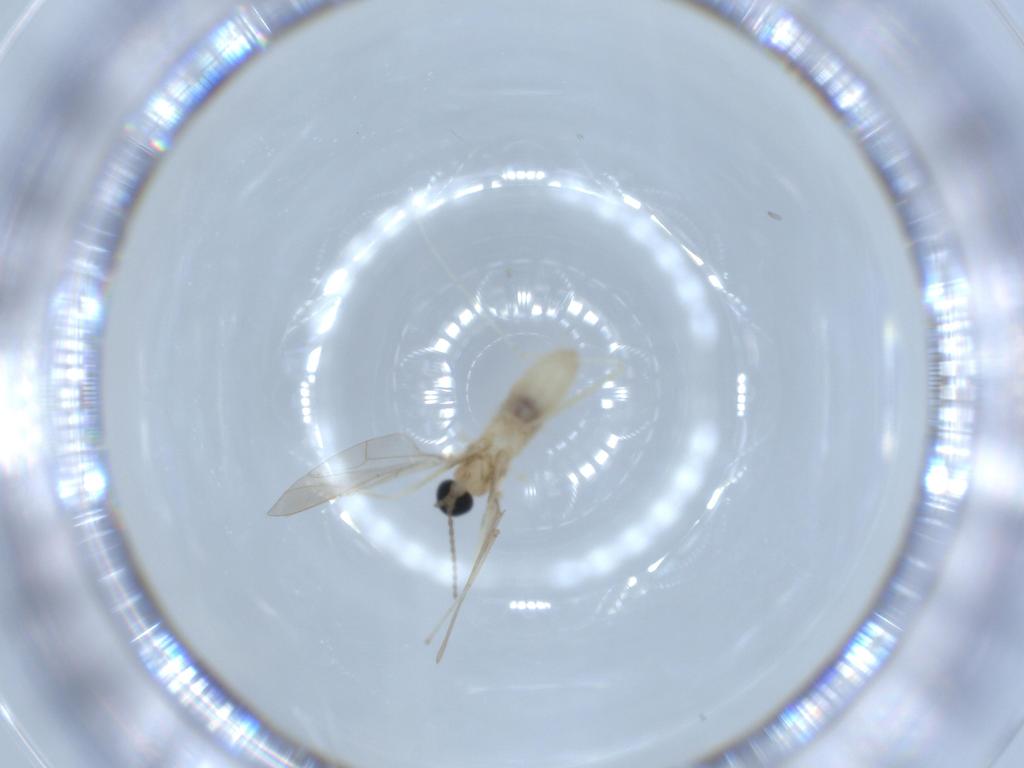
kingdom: Animalia
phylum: Arthropoda
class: Insecta
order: Diptera
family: Cecidomyiidae
